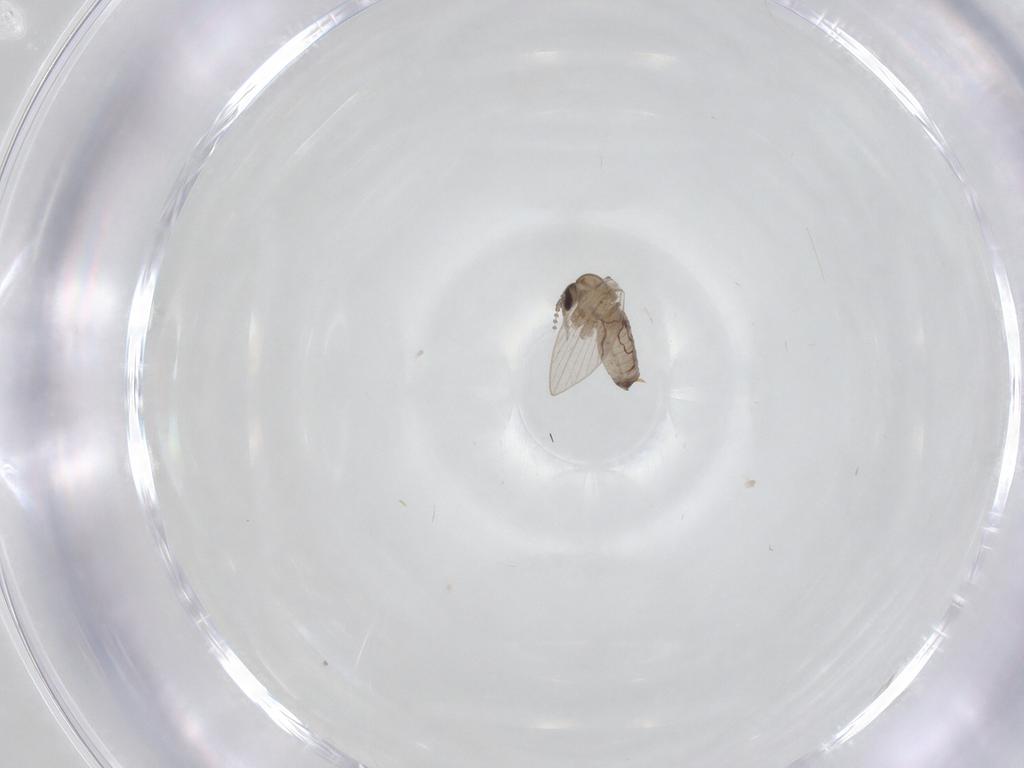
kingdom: Animalia
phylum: Arthropoda
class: Insecta
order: Diptera
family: Psychodidae
